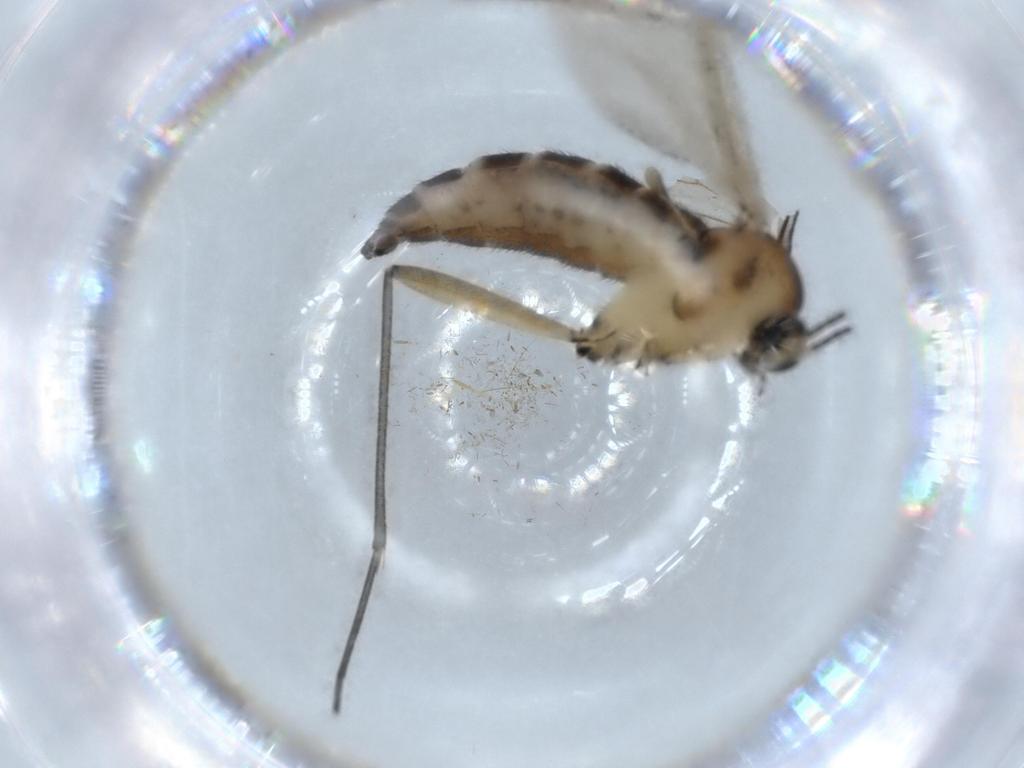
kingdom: Animalia
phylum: Arthropoda
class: Insecta
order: Diptera
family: Sciaridae
